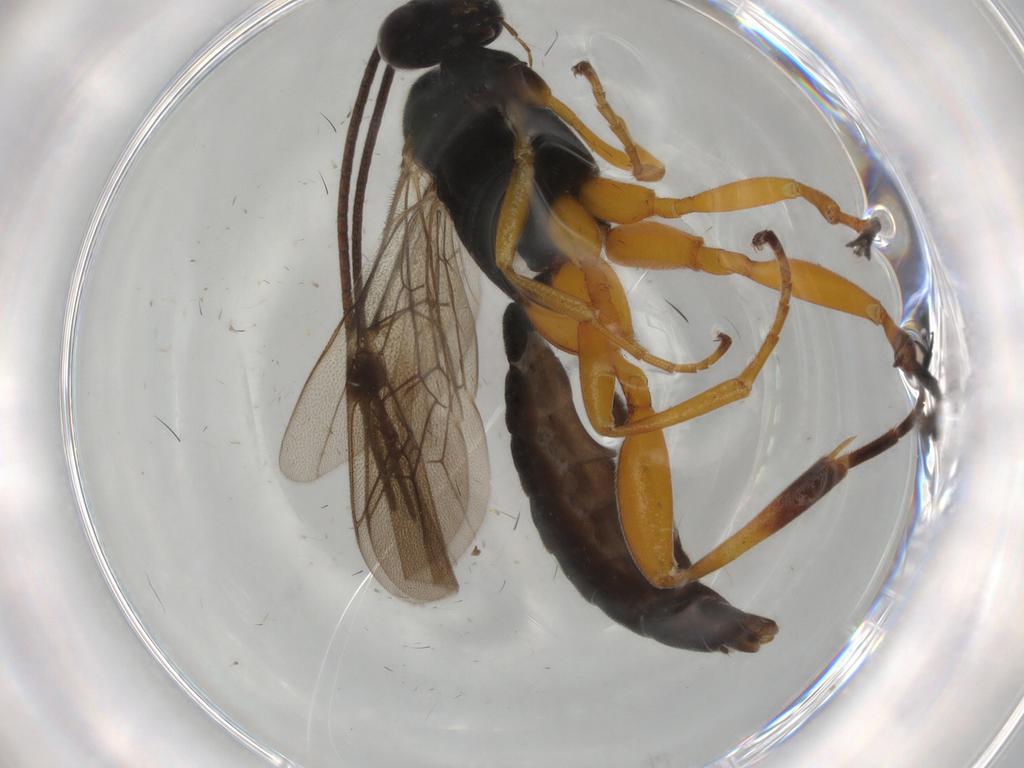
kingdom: Animalia
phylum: Arthropoda
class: Insecta
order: Hymenoptera
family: Ichneumonidae
